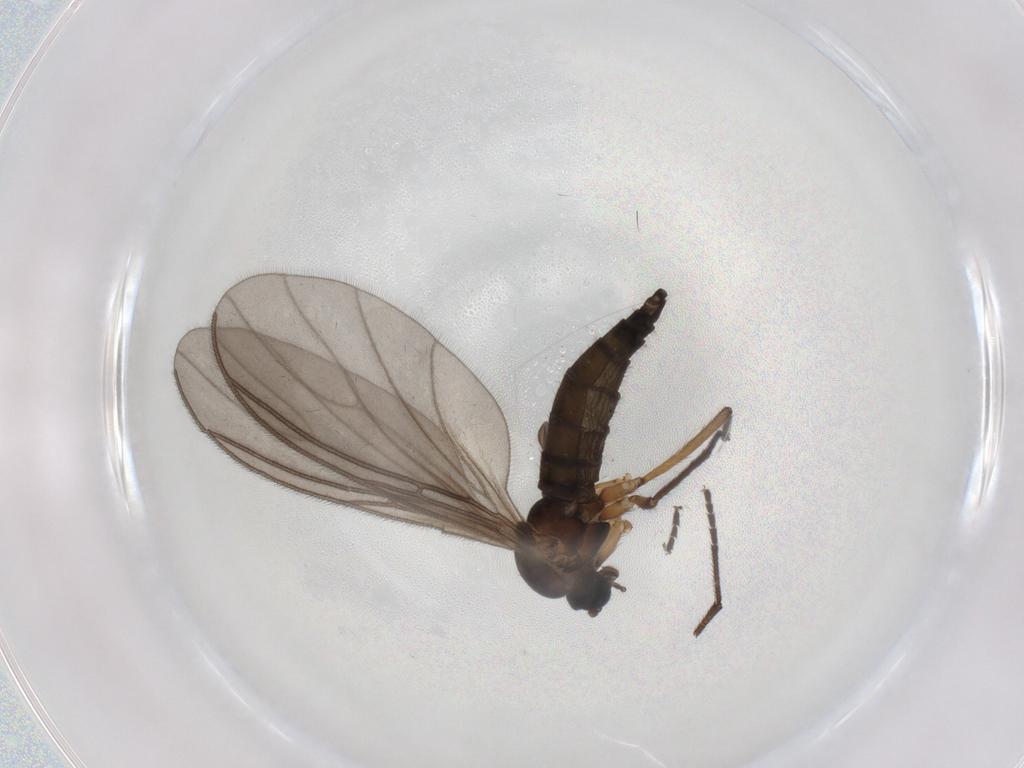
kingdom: Animalia
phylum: Arthropoda
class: Insecta
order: Diptera
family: Sciaridae
